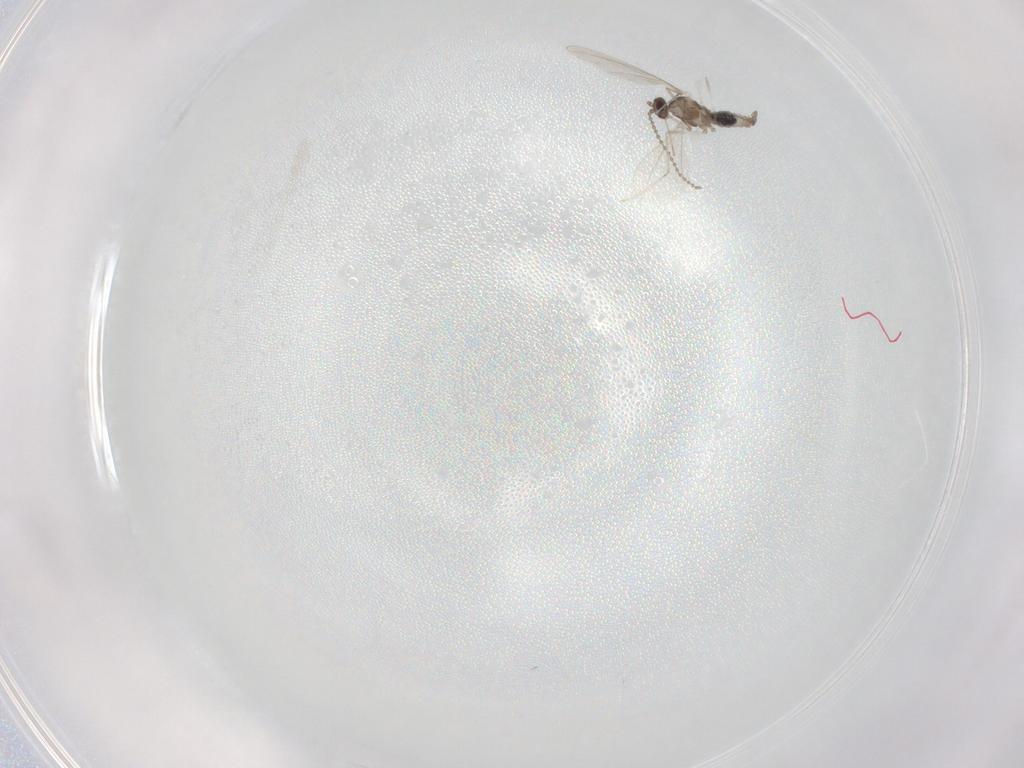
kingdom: Animalia
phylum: Arthropoda
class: Insecta
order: Diptera
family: Cecidomyiidae
